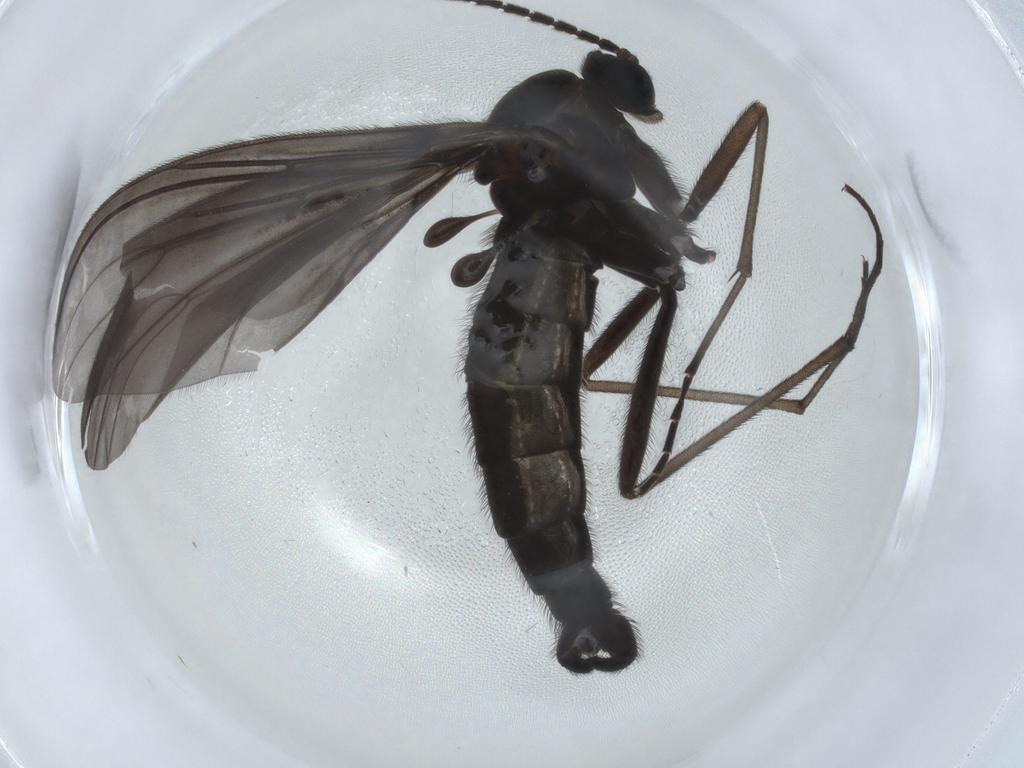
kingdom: Animalia
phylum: Arthropoda
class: Insecta
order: Diptera
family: Sciaridae
